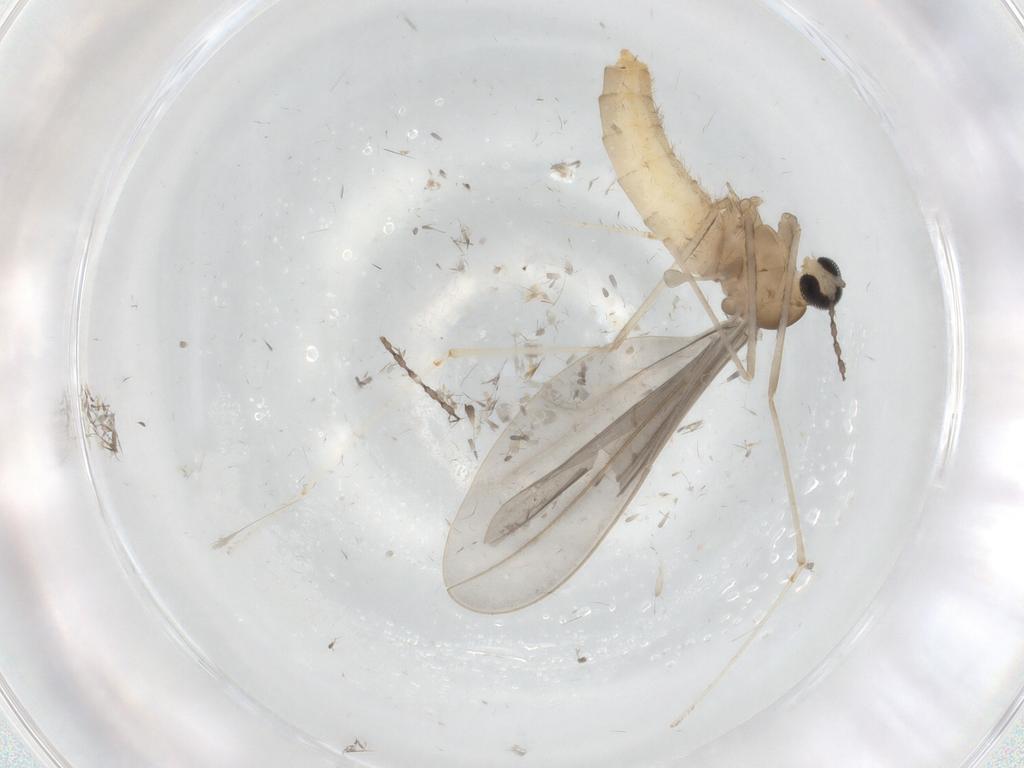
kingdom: Animalia
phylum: Arthropoda
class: Insecta
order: Diptera
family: Cecidomyiidae
